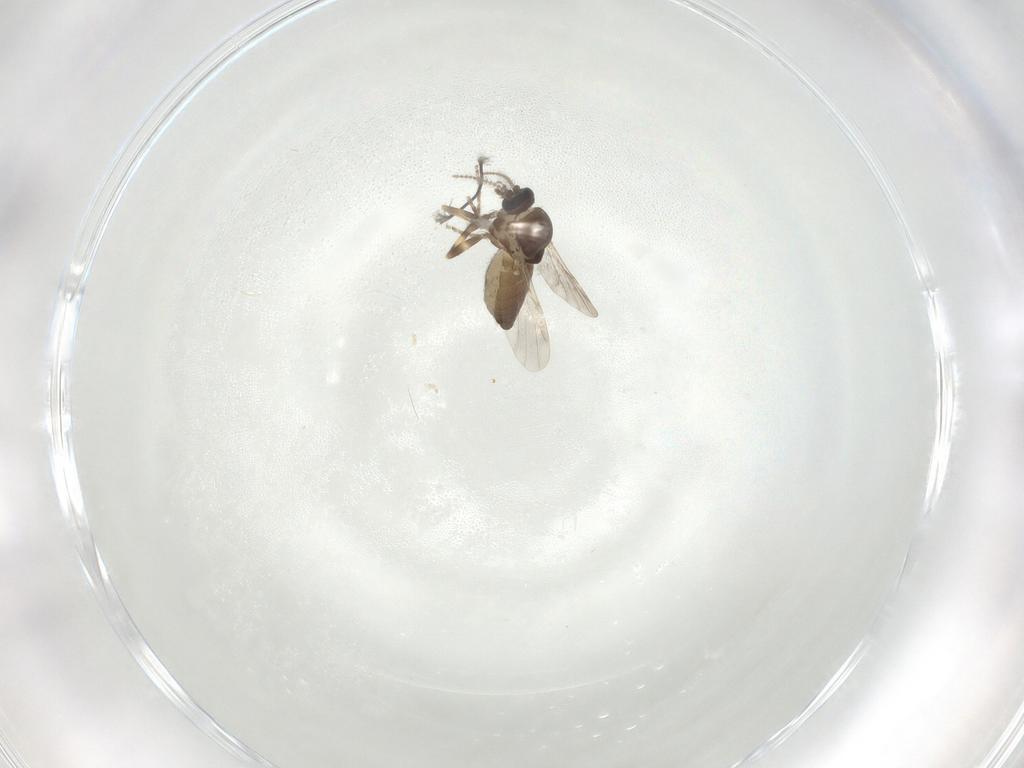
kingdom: Animalia
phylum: Arthropoda
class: Insecta
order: Diptera
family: Ceratopogonidae
